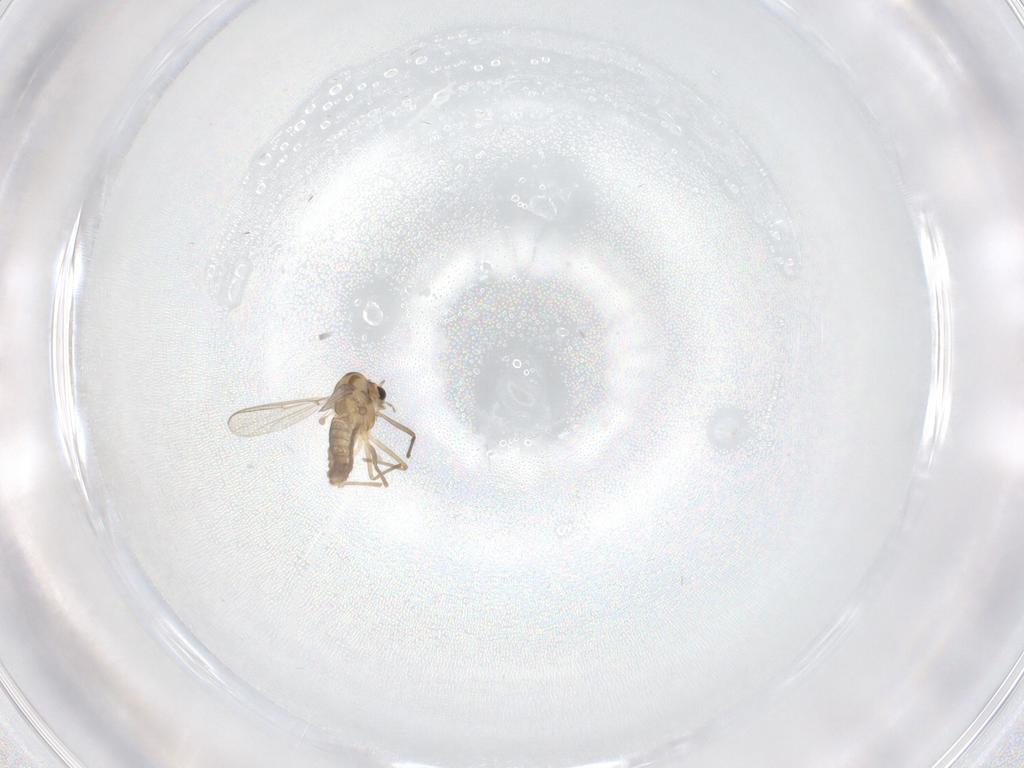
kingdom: Animalia
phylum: Arthropoda
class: Insecta
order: Diptera
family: Chironomidae
